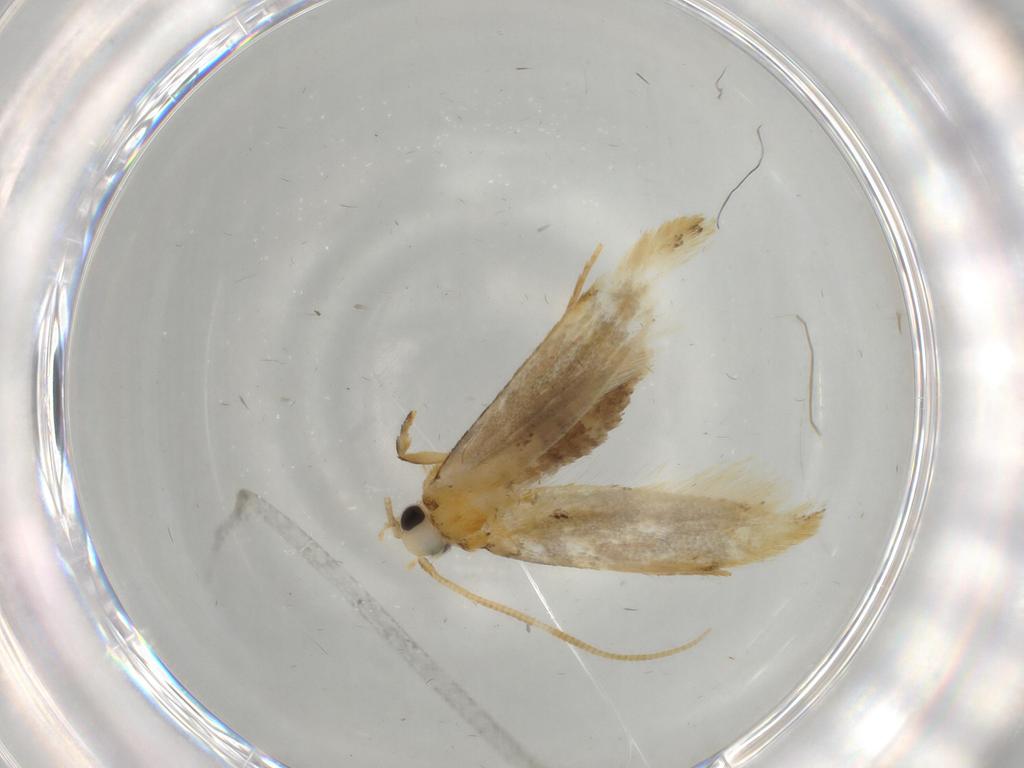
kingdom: Animalia
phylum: Arthropoda
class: Insecta
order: Lepidoptera
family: Tineidae
